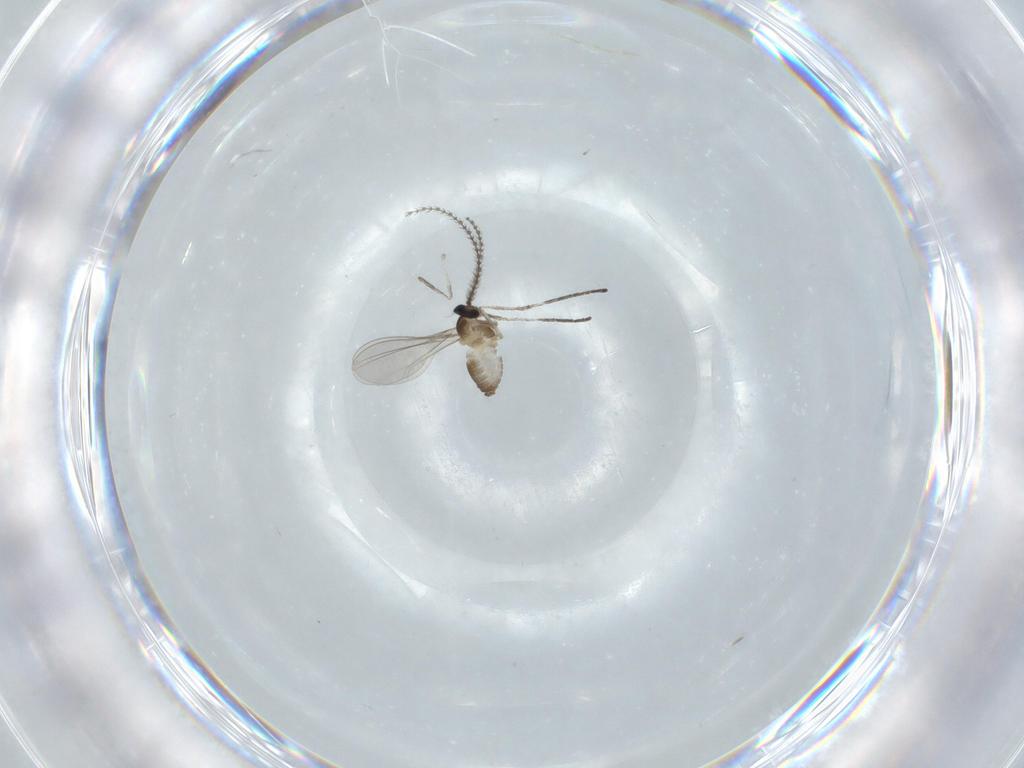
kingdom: Animalia
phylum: Arthropoda
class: Insecta
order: Diptera
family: Cecidomyiidae
